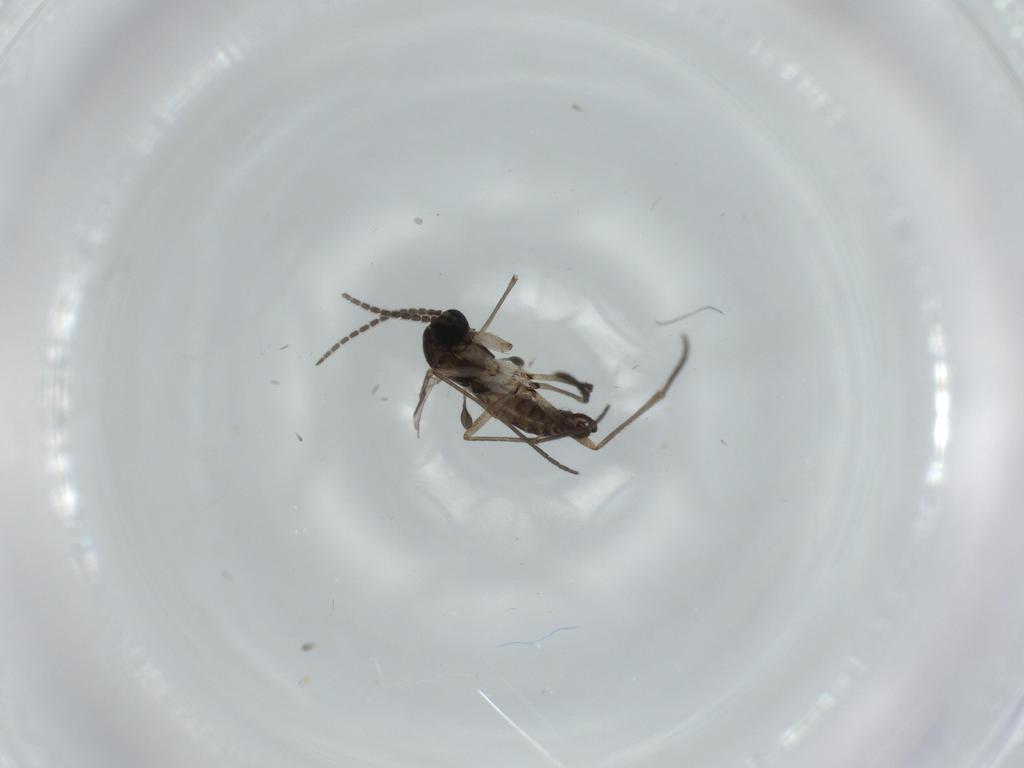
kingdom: Animalia
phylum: Arthropoda
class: Insecta
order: Diptera
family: Sciaridae
